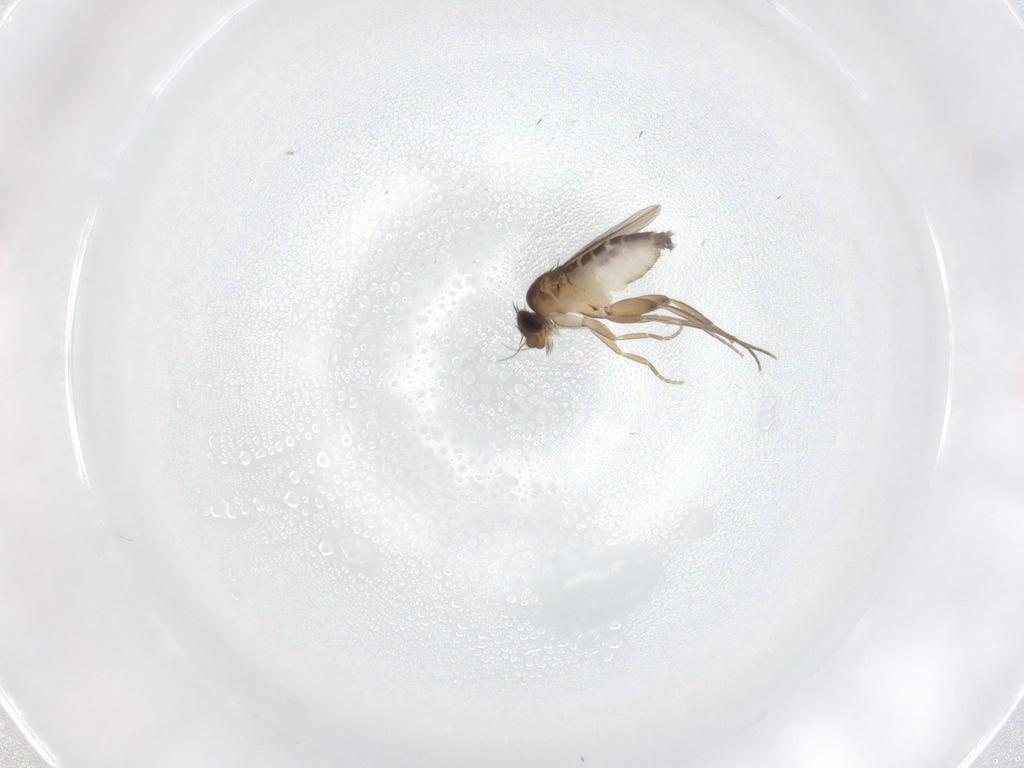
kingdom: Animalia
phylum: Arthropoda
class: Insecta
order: Diptera
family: Phoridae
